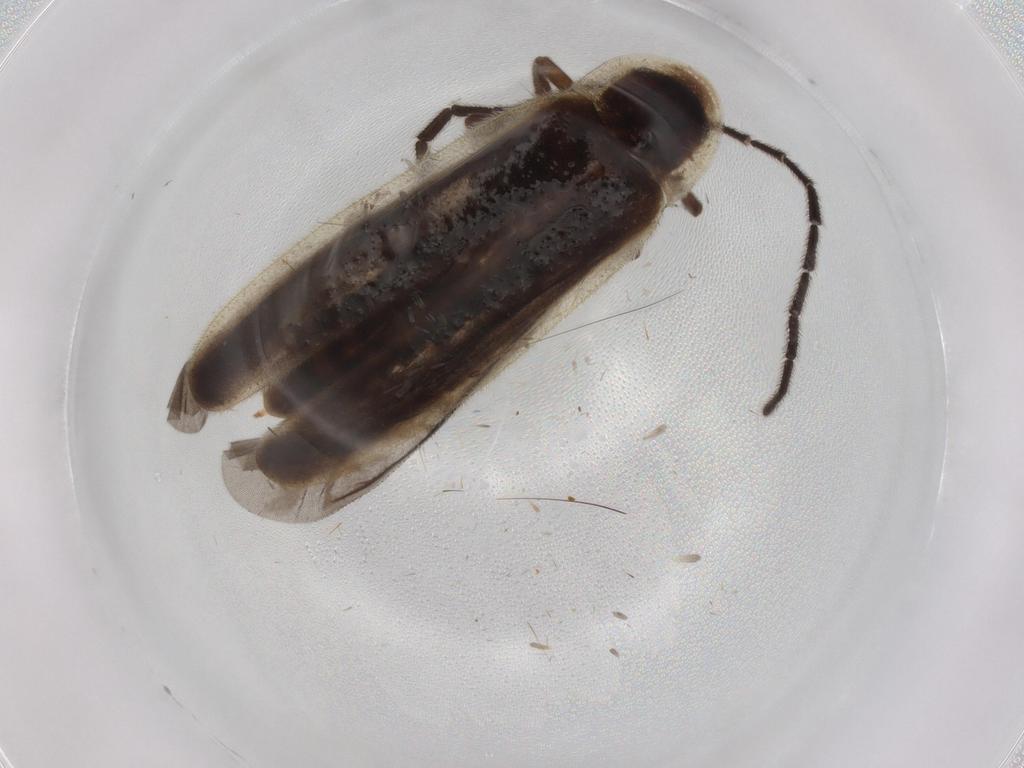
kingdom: Animalia
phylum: Arthropoda
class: Insecta
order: Coleoptera
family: Lampyridae
